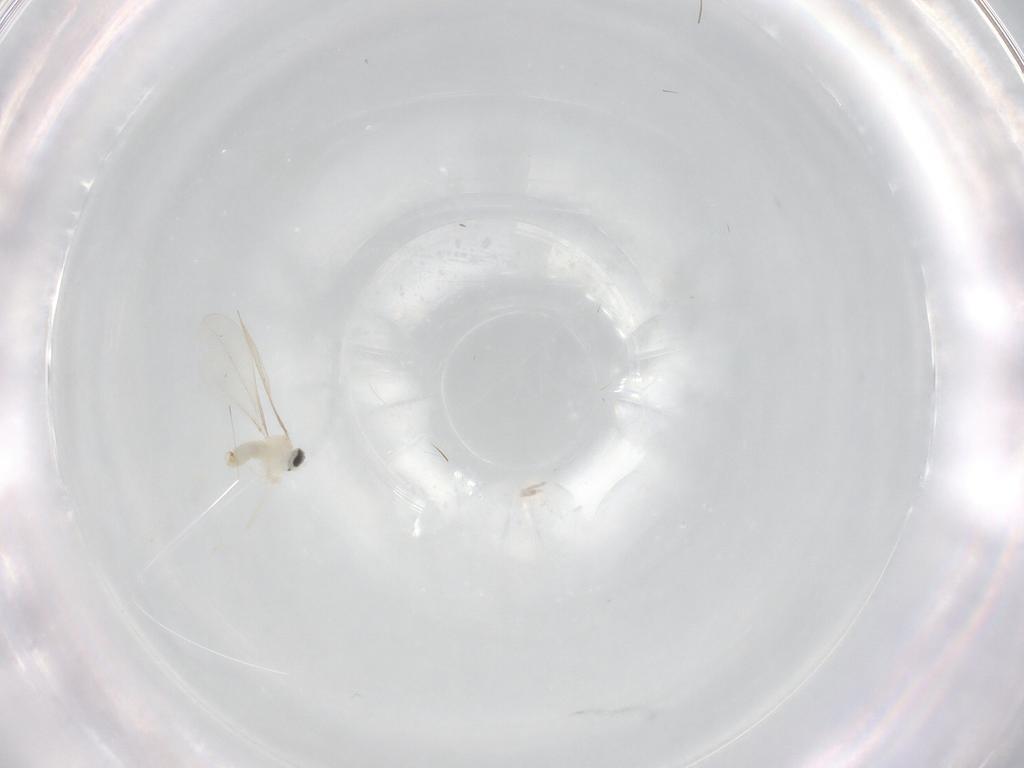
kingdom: Animalia
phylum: Arthropoda
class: Insecta
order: Diptera
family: Cecidomyiidae
